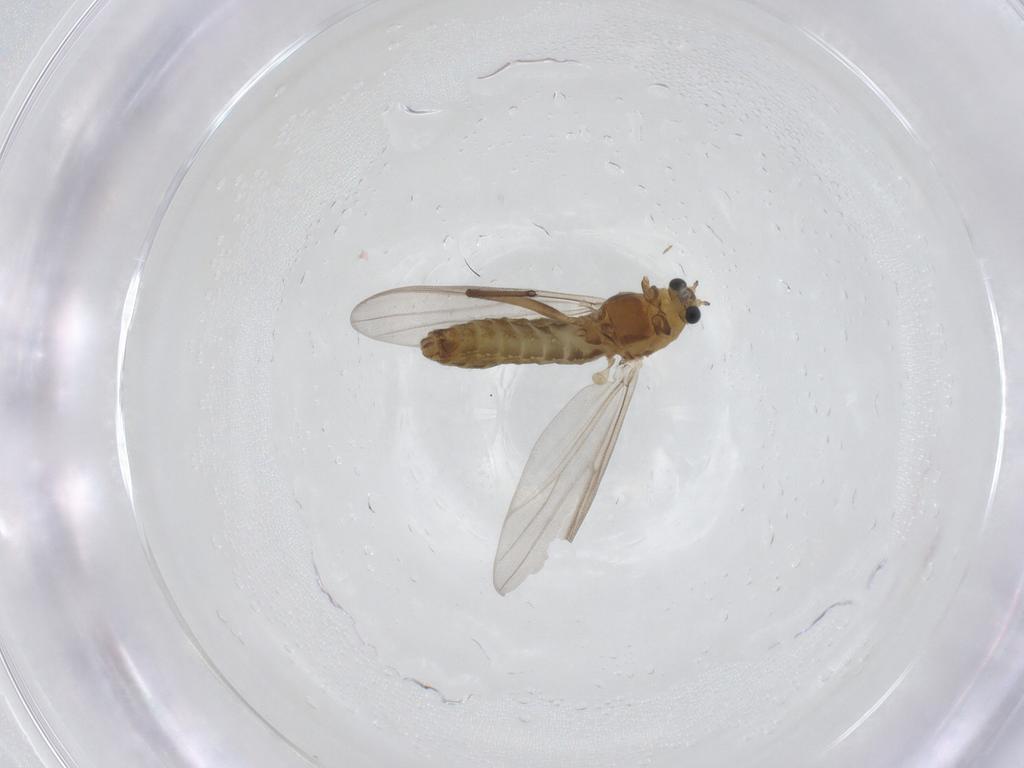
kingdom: Animalia
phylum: Arthropoda
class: Insecta
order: Diptera
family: Chironomidae
